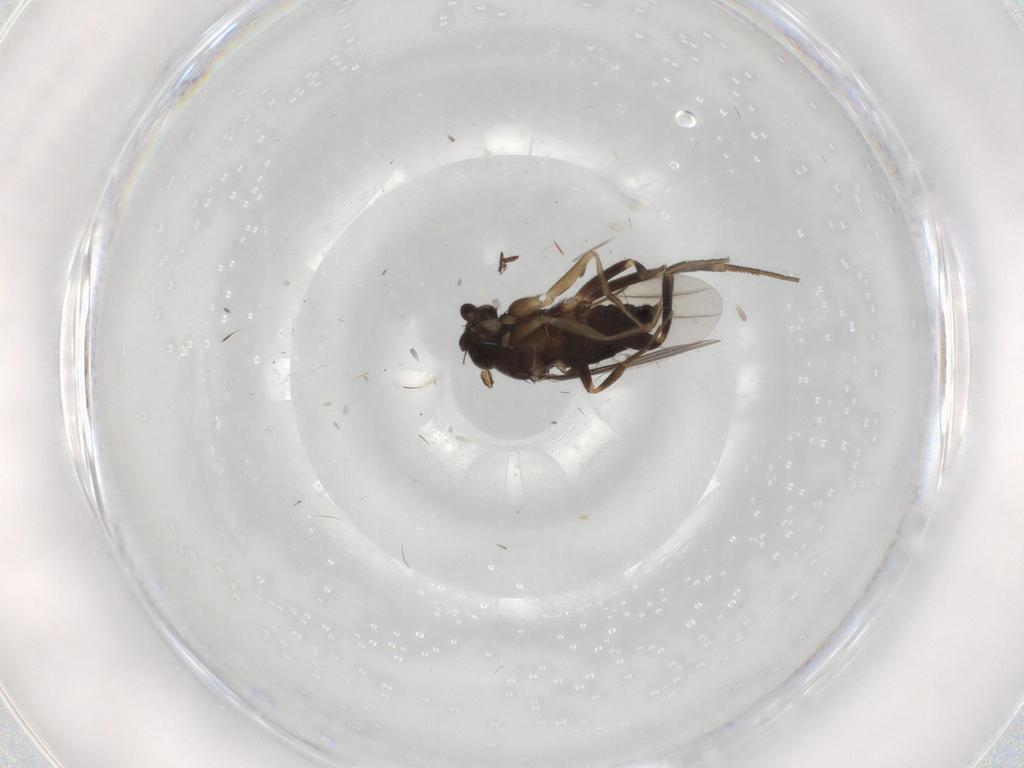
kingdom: Animalia
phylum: Arthropoda
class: Insecta
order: Diptera
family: Phoridae
